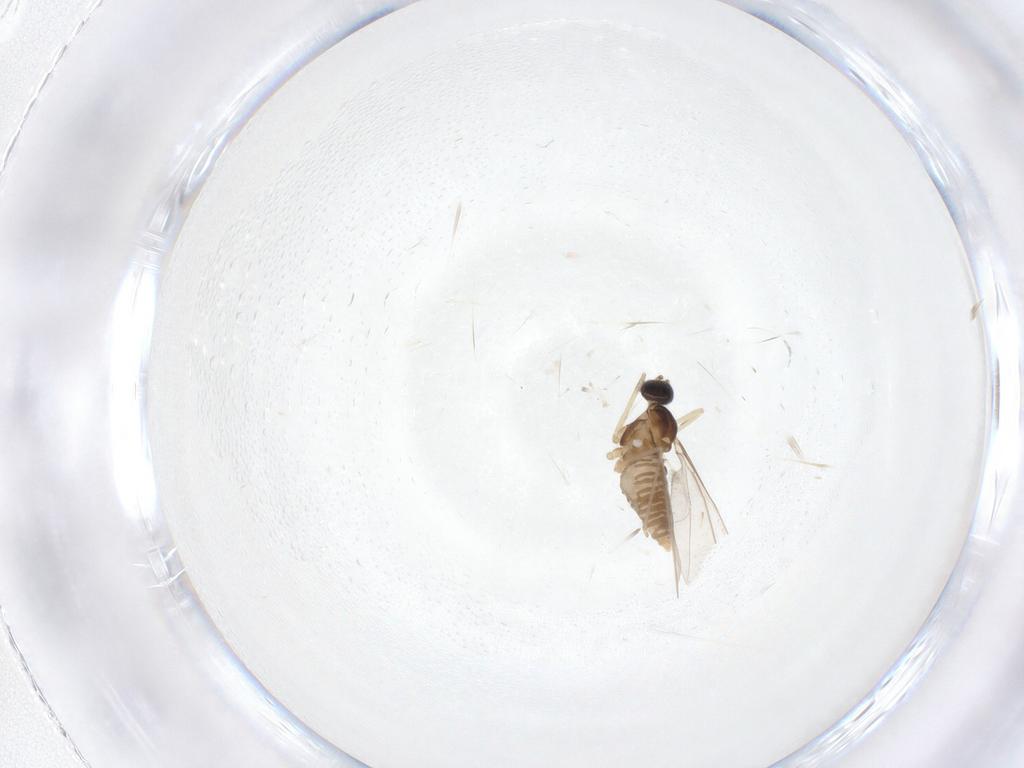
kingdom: Animalia
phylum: Arthropoda
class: Insecta
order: Diptera
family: Cecidomyiidae
